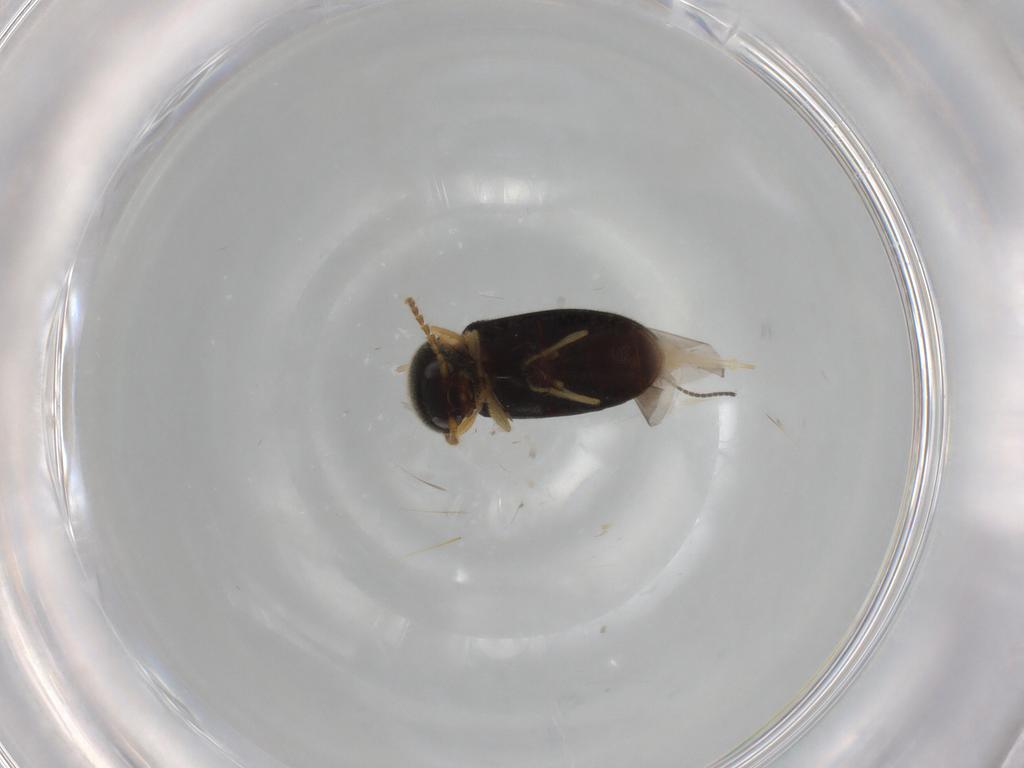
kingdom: Animalia
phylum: Arthropoda
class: Insecta
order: Coleoptera
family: Elateridae
